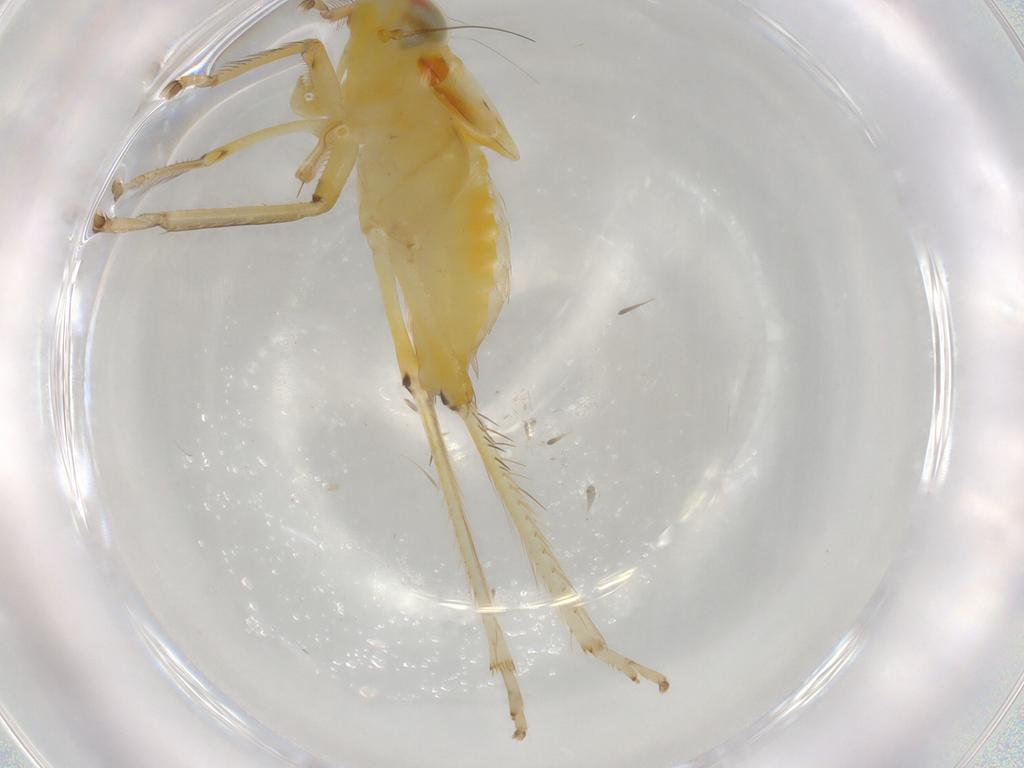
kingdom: Animalia
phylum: Arthropoda
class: Insecta
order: Hemiptera
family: Cicadellidae
